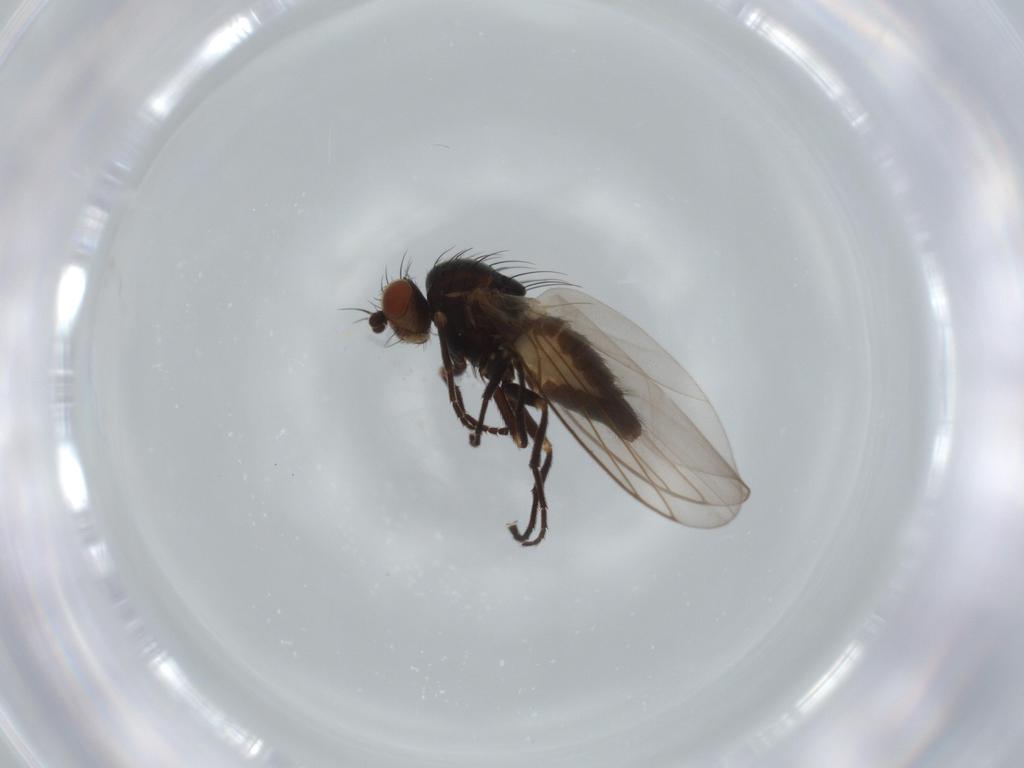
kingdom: Animalia
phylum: Arthropoda
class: Insecta
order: Diptera
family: Agromyzidae
